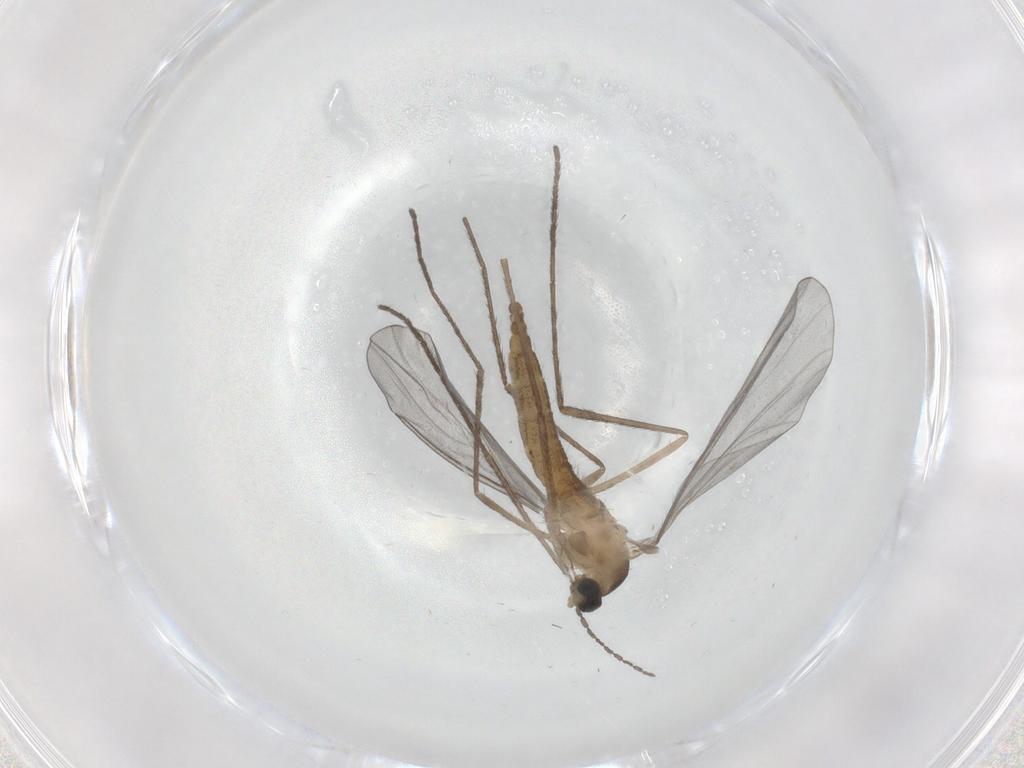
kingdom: Animalia
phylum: Arthropoda
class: Insecta
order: Diptera
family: Cecidomyiidae
